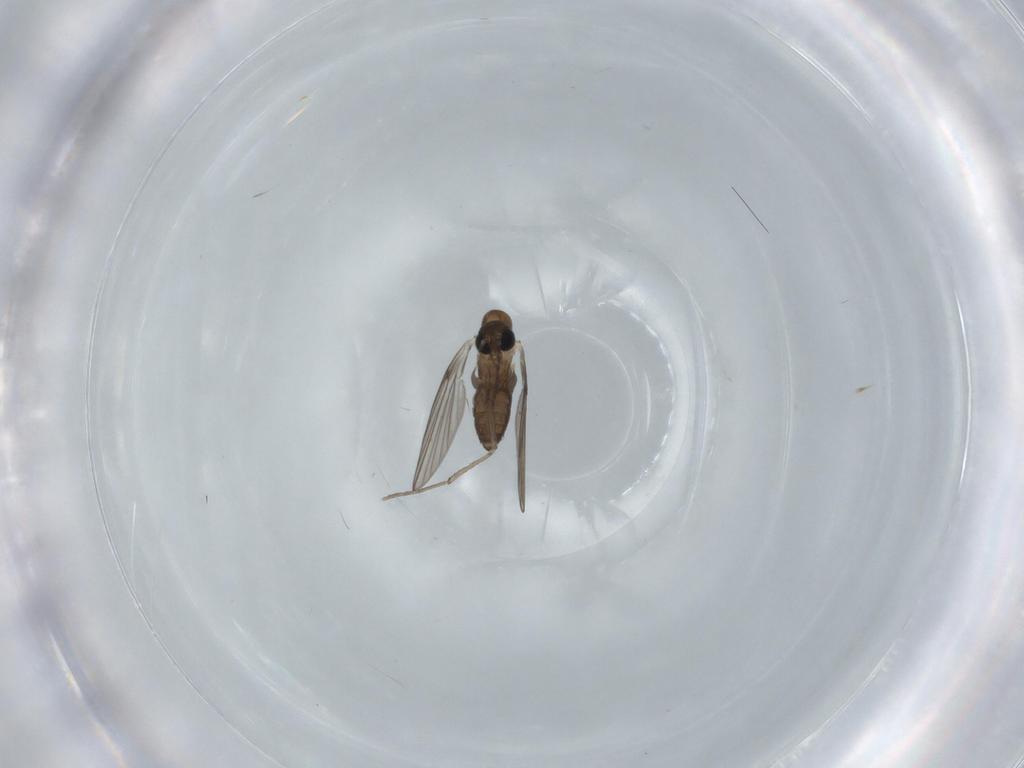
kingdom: Animalia
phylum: Arthropoda
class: Insecta
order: Diptera
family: Psychodidae
